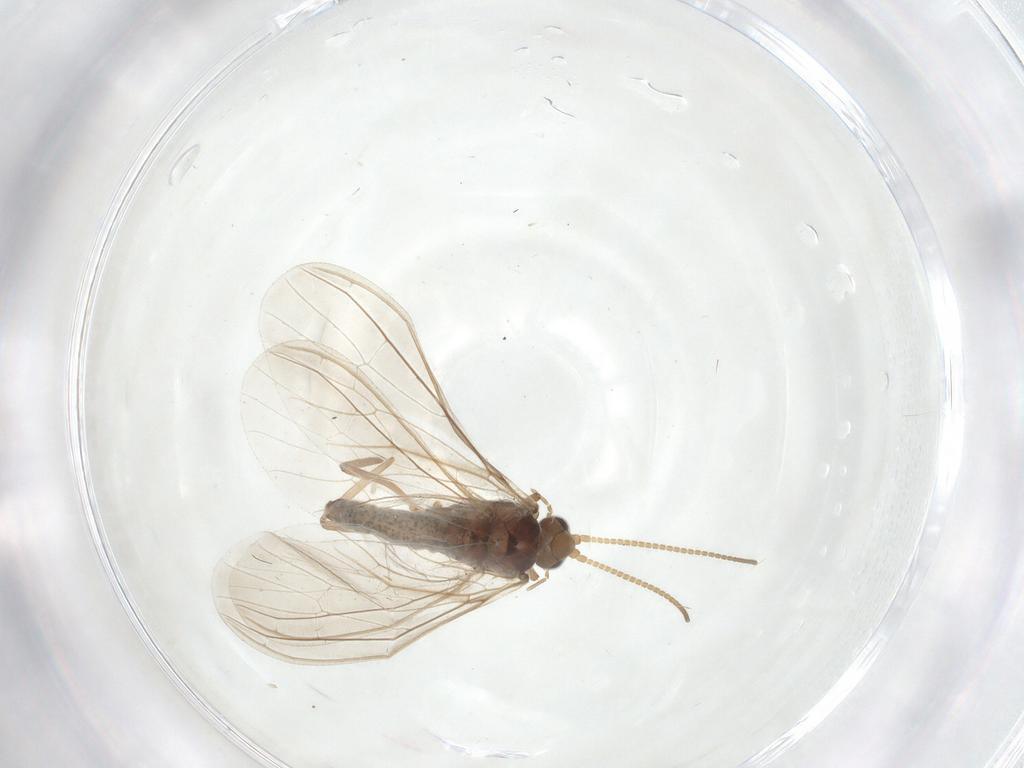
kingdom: Animalia
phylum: Arthropoda
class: Insecta
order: Neuroptera
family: Coniopterygidae
